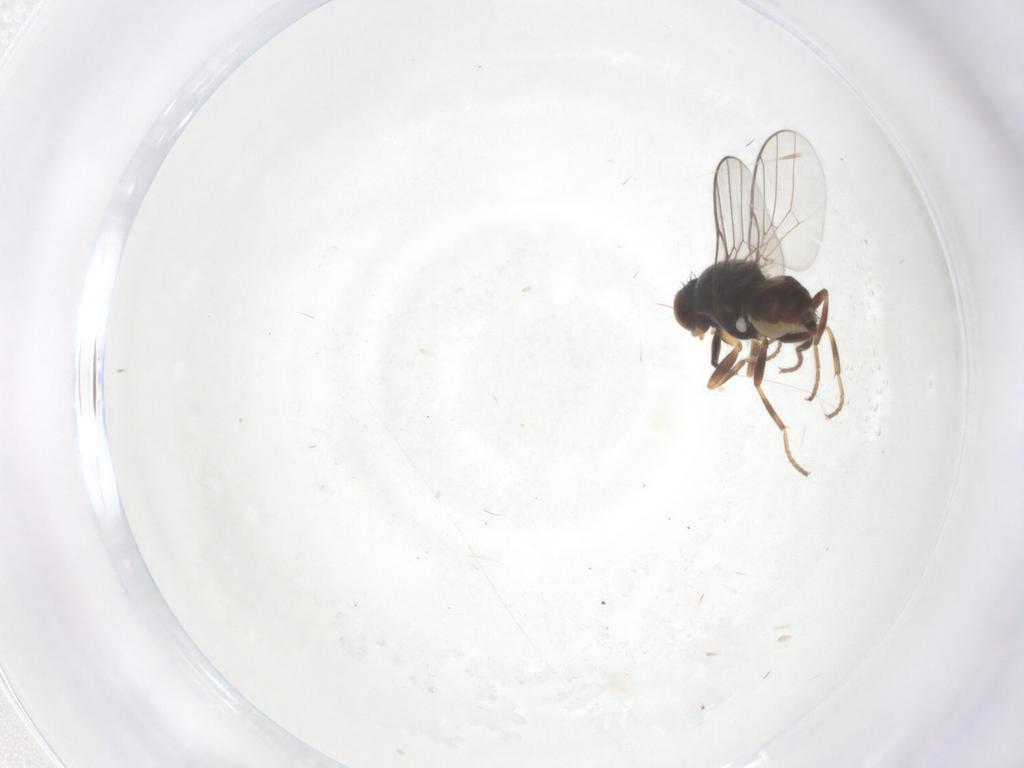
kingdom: Animalia
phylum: Arthropoda
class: Insecta
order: Diptera
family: Chloropidae
